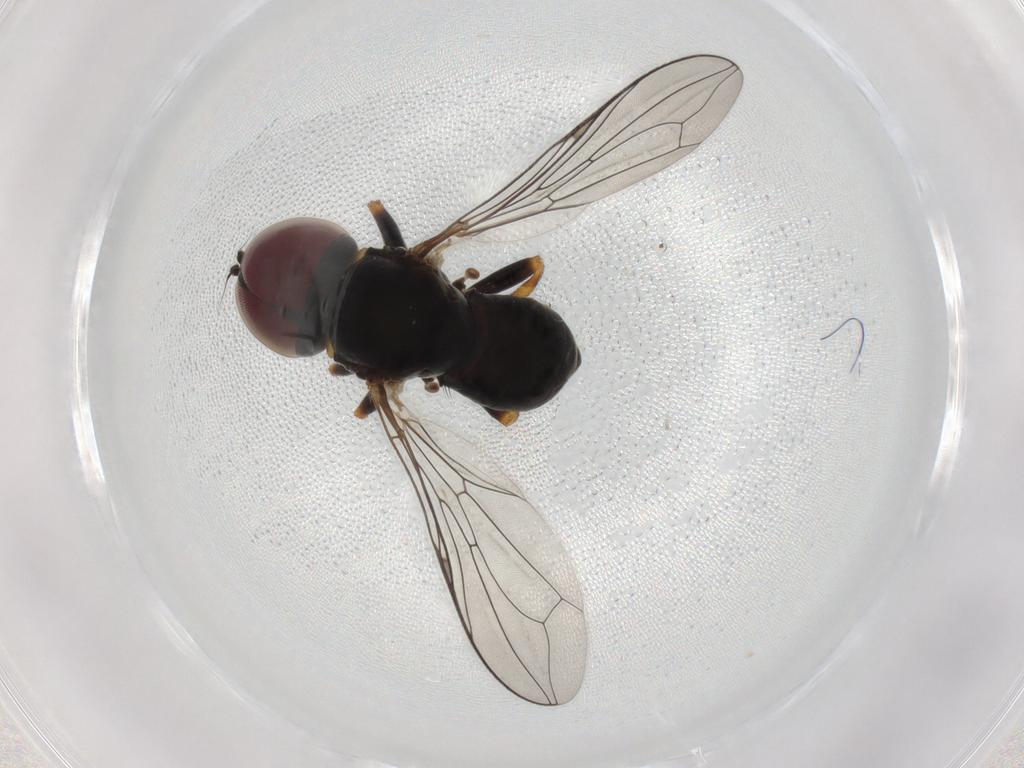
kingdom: Animalia
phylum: Arthropoda
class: Insecta
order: Diptera
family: Pipunculidae
